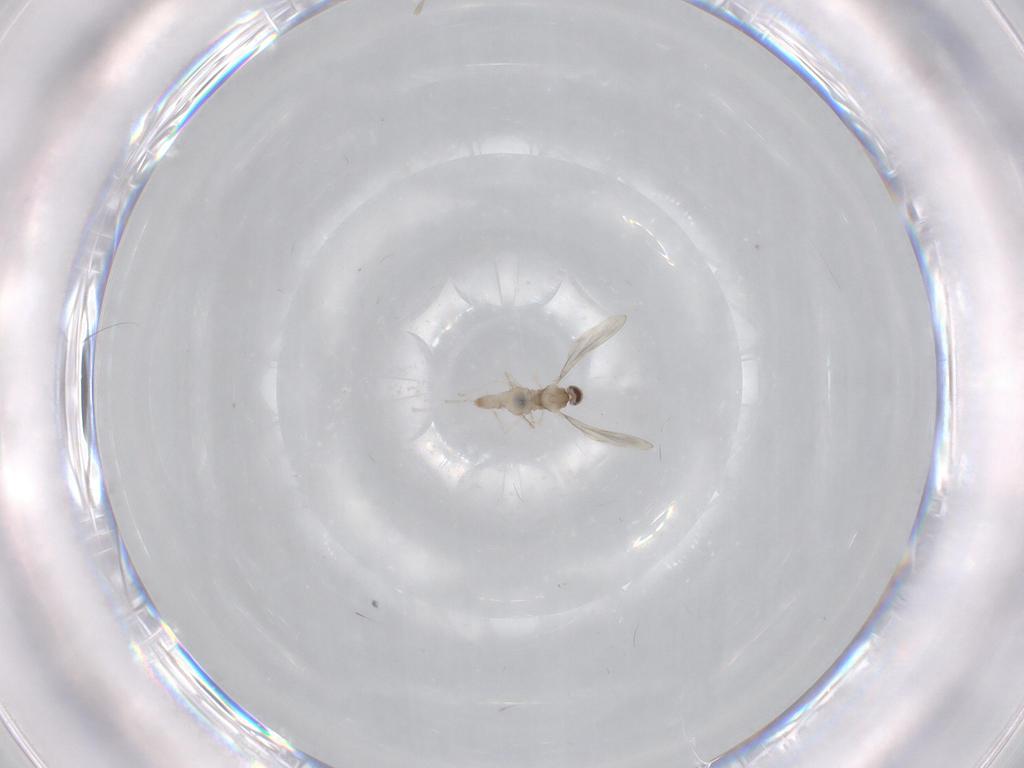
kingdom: Animalia
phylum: Arthropoda
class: Insecta
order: Diptera
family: Cecidomyiidae
